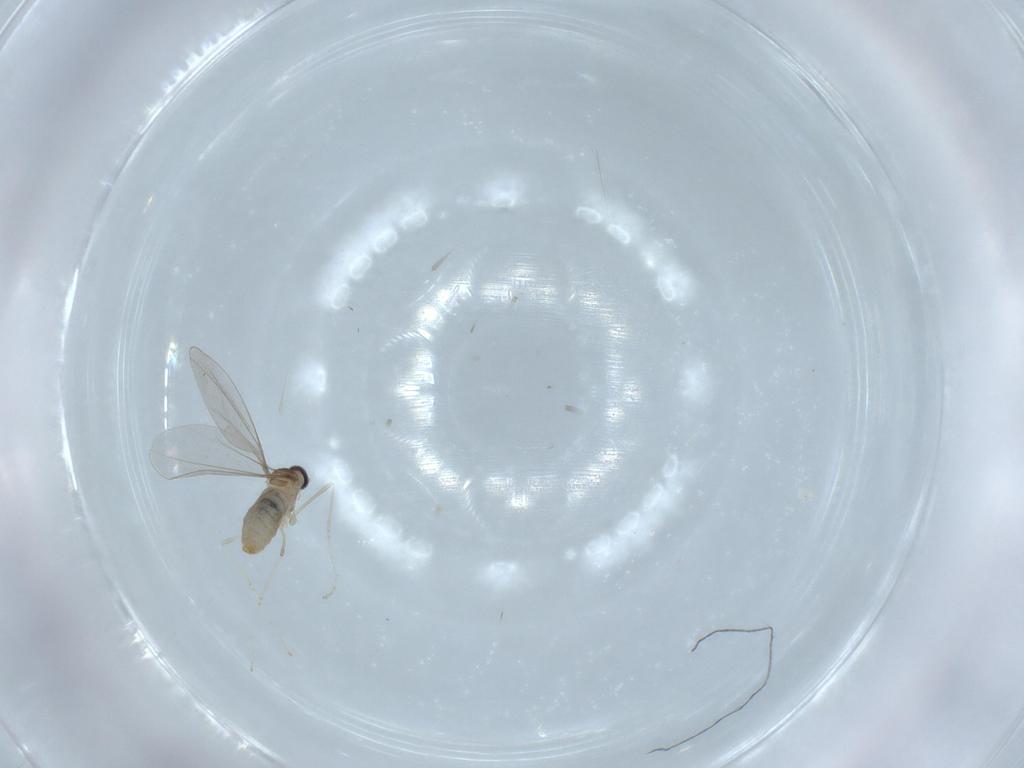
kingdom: Animalia
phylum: Arthropoda
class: Insecta
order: Diptera
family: Cecidomyiidae
